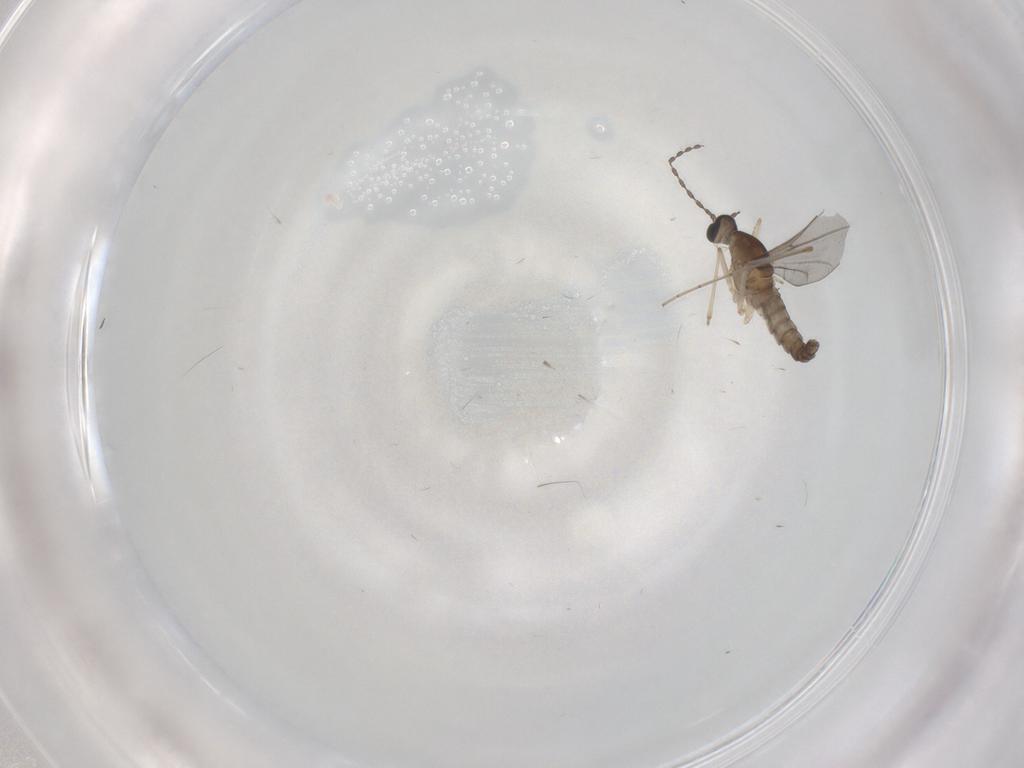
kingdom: Animalia
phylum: Arthropoda
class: Insecta
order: Diptera
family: Cecidomyiidae
